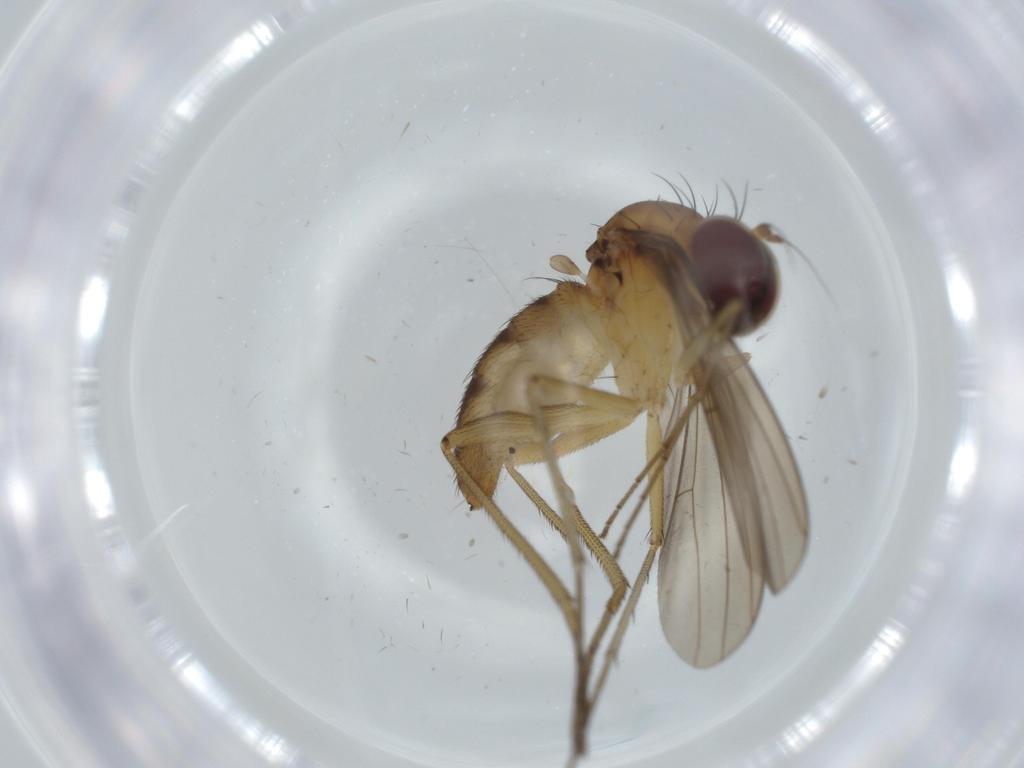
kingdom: Animalia
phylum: Arthropoda
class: Insecta
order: Diptera
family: Dolichopodidae
